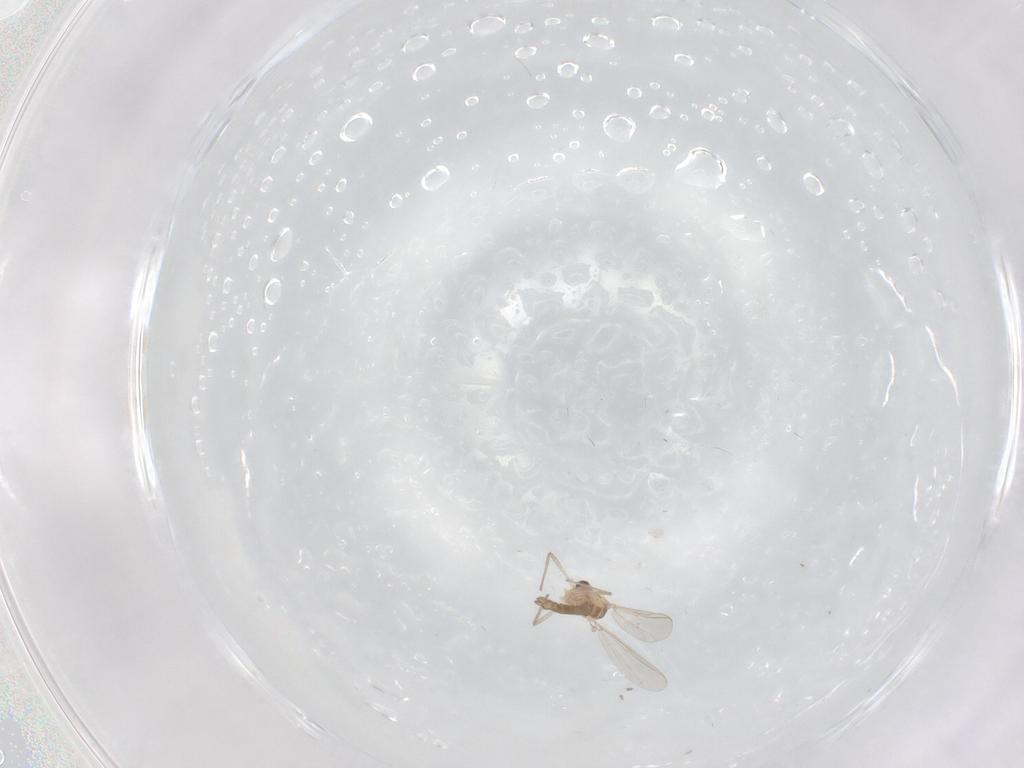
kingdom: Animalia
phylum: Arthropoda
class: Insecta
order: Diptera
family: Chironomidae
